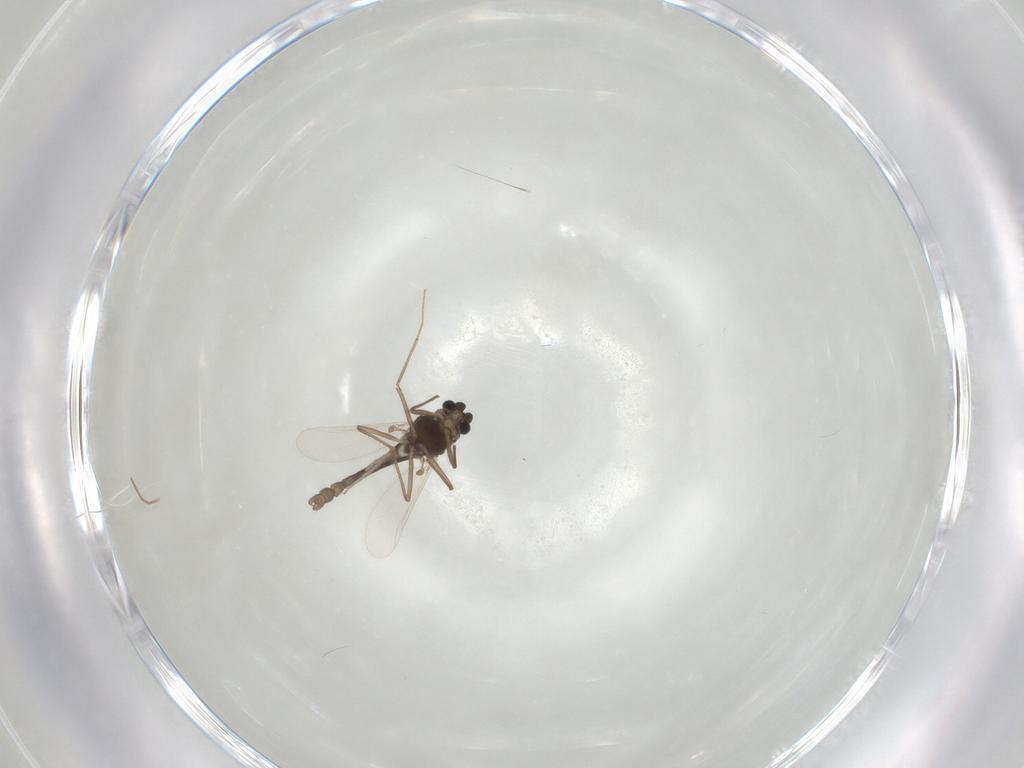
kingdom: Animalia
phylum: Arthropoda
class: Insecta
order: Diptera
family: Chironomidae
